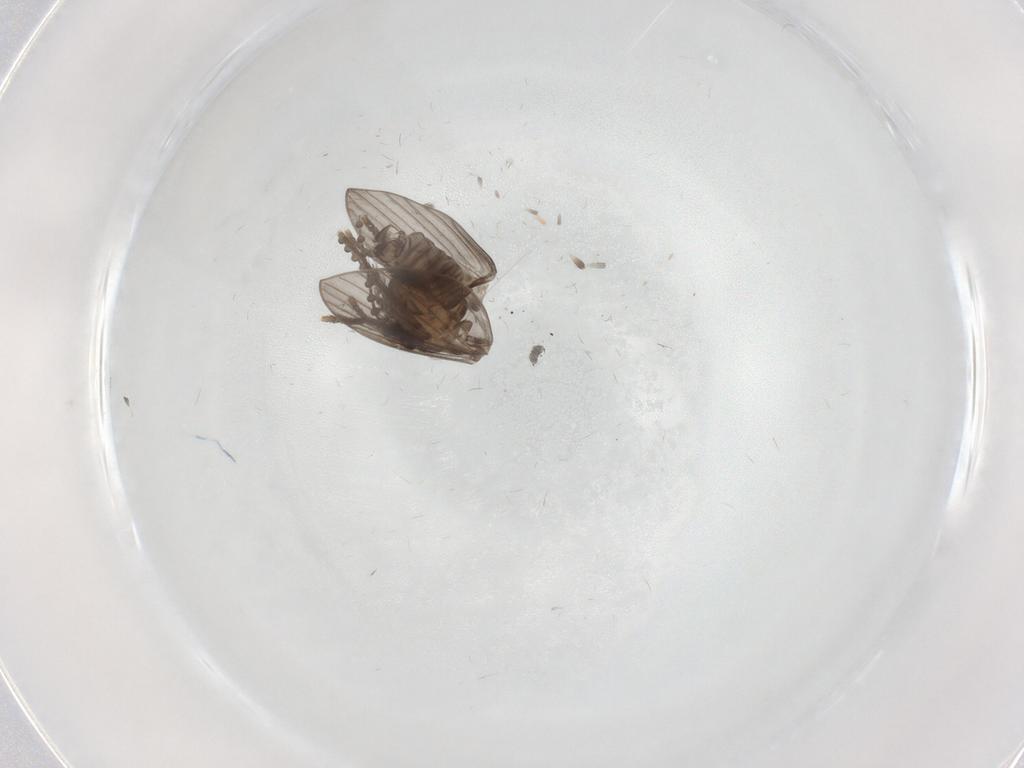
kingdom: Animalia
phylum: Arthropoda
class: Insecta
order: Diptera
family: Psychodidae
